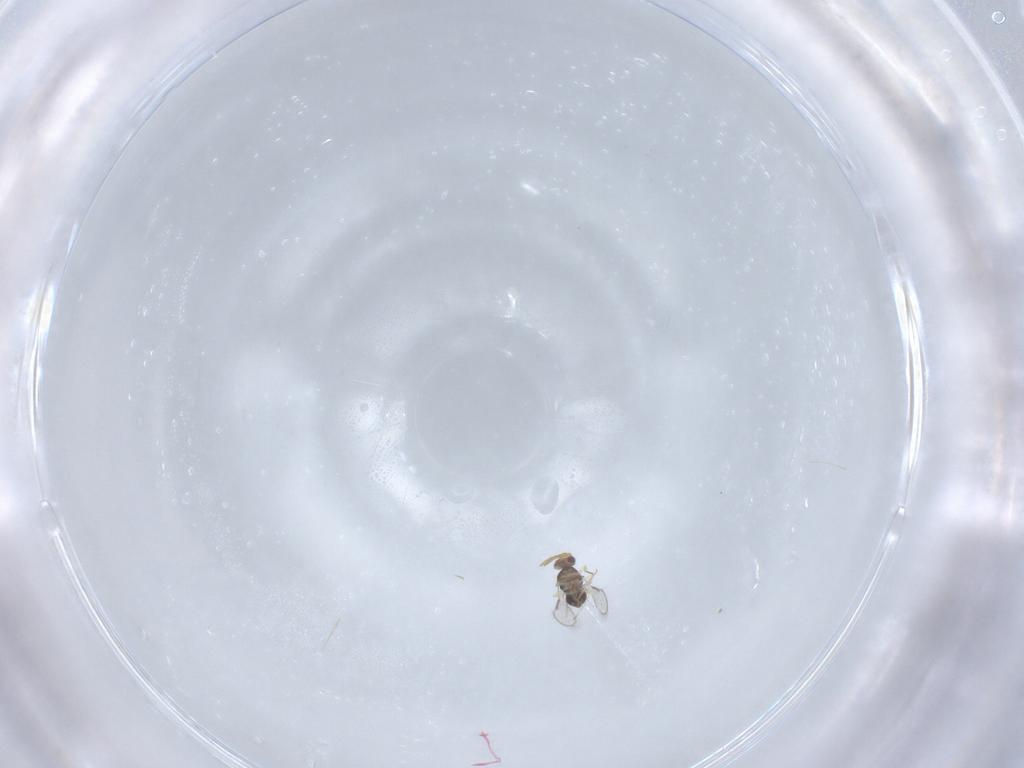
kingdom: Animalia
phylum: Arthropoda
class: Insecta
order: Hymenoptera
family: Aphelinidae
